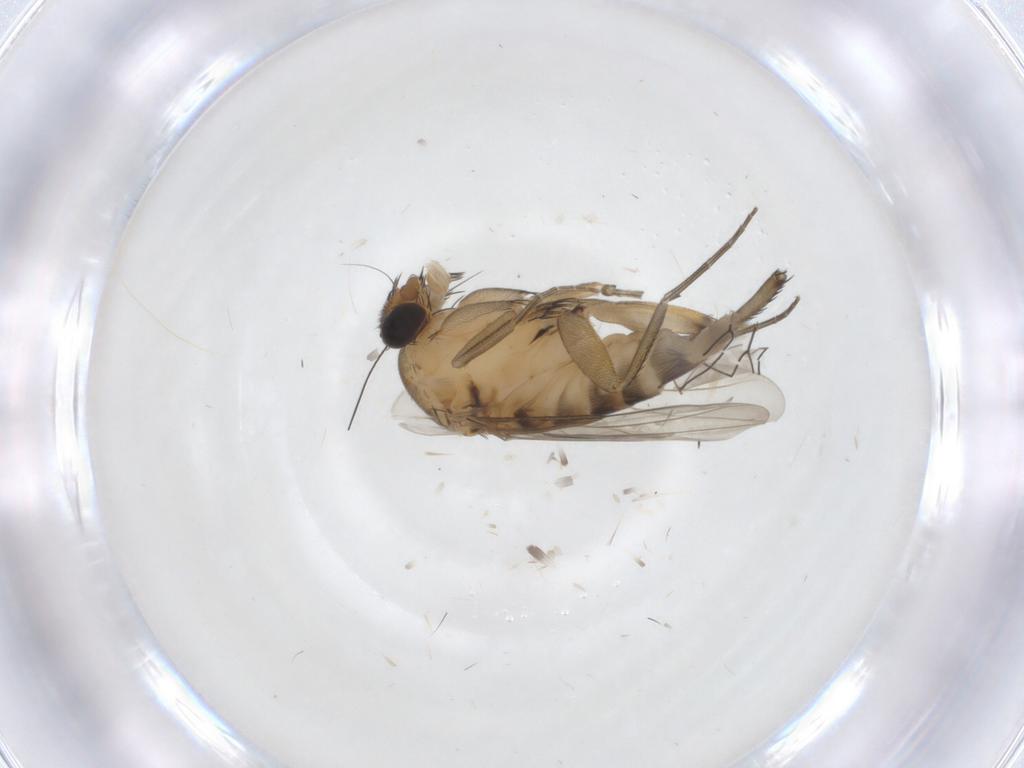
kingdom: Animalia
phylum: Arthropoda
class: Insecta
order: Diptera
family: Phoridae
